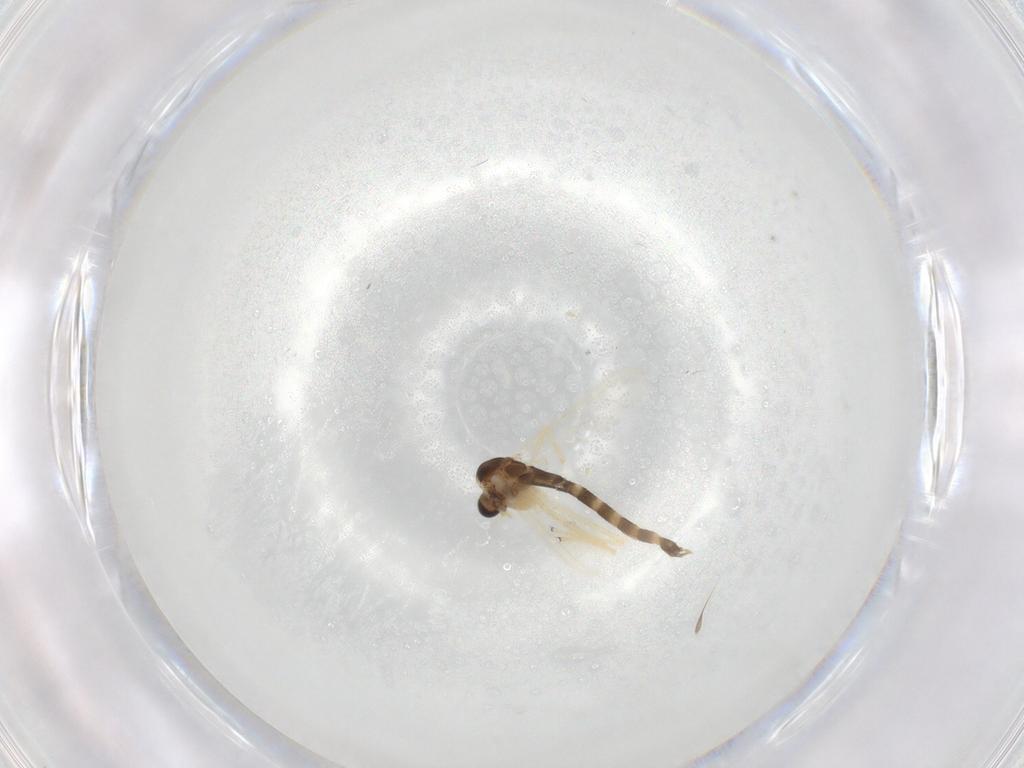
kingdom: Animalia
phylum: Arthropoda
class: Insecta
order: Diptera
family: Chironomidae
